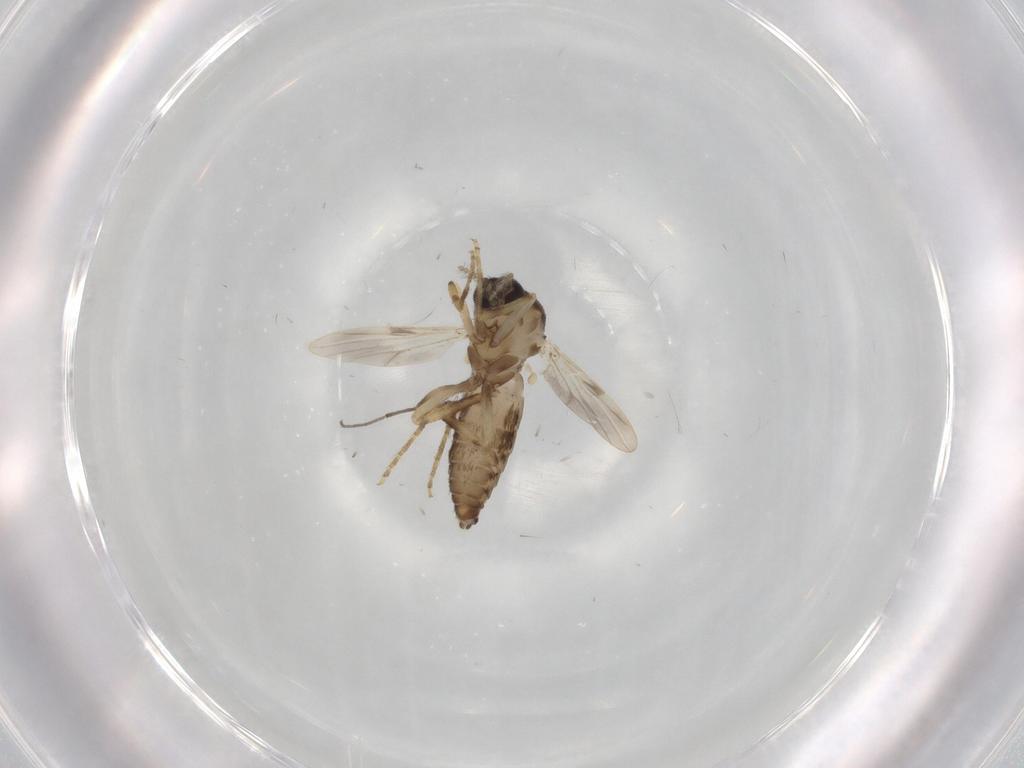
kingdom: Animalia
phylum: Arthropoda
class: Insecta
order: Diptera
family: Ceratopogonidae
